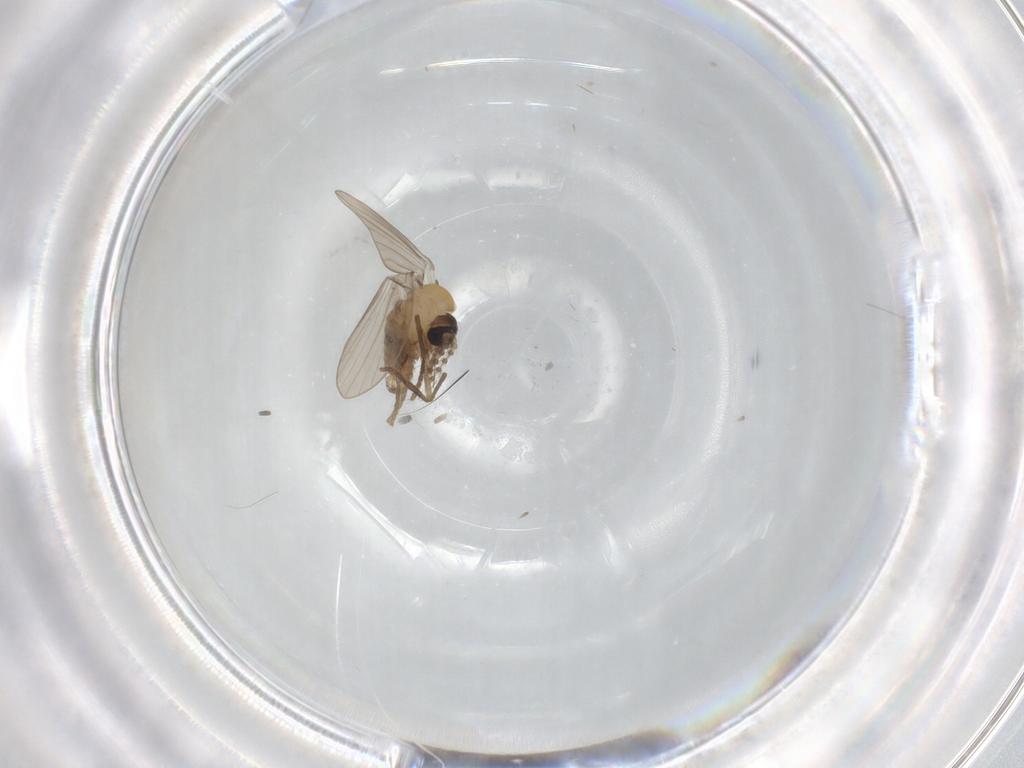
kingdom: Animalia
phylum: Arthropoda
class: Insecta
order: Diptera
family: Psychodidae
